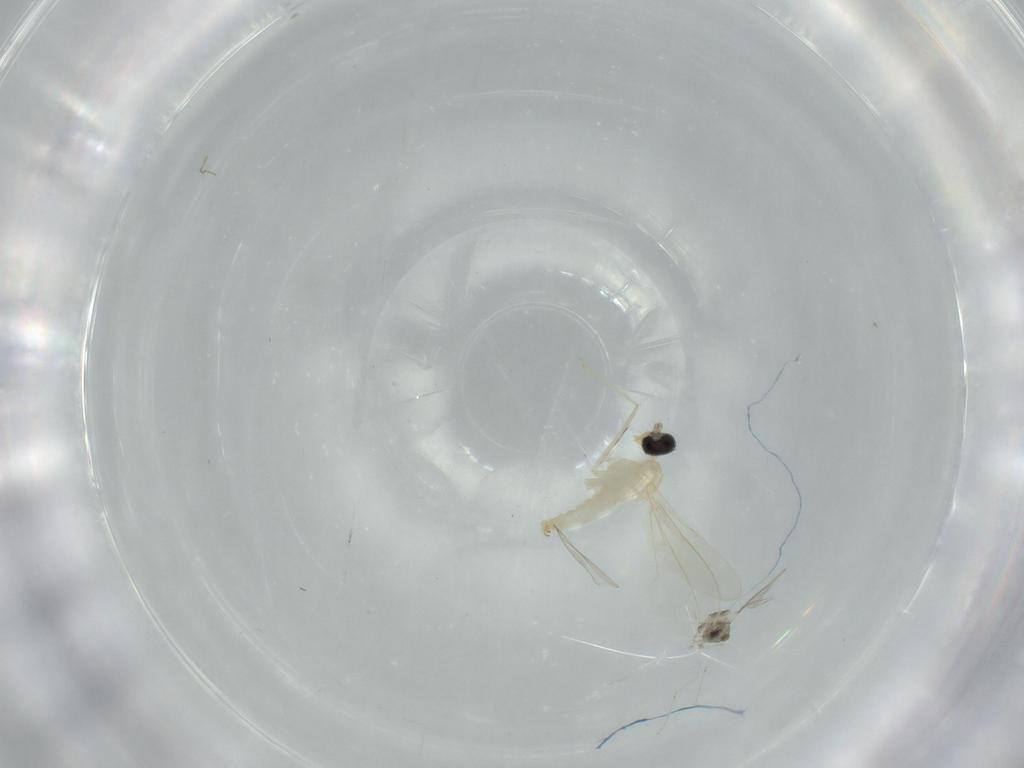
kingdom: Animalia
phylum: Arthropoda
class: Insecta
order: Diptera
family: Cecidomyiidae
